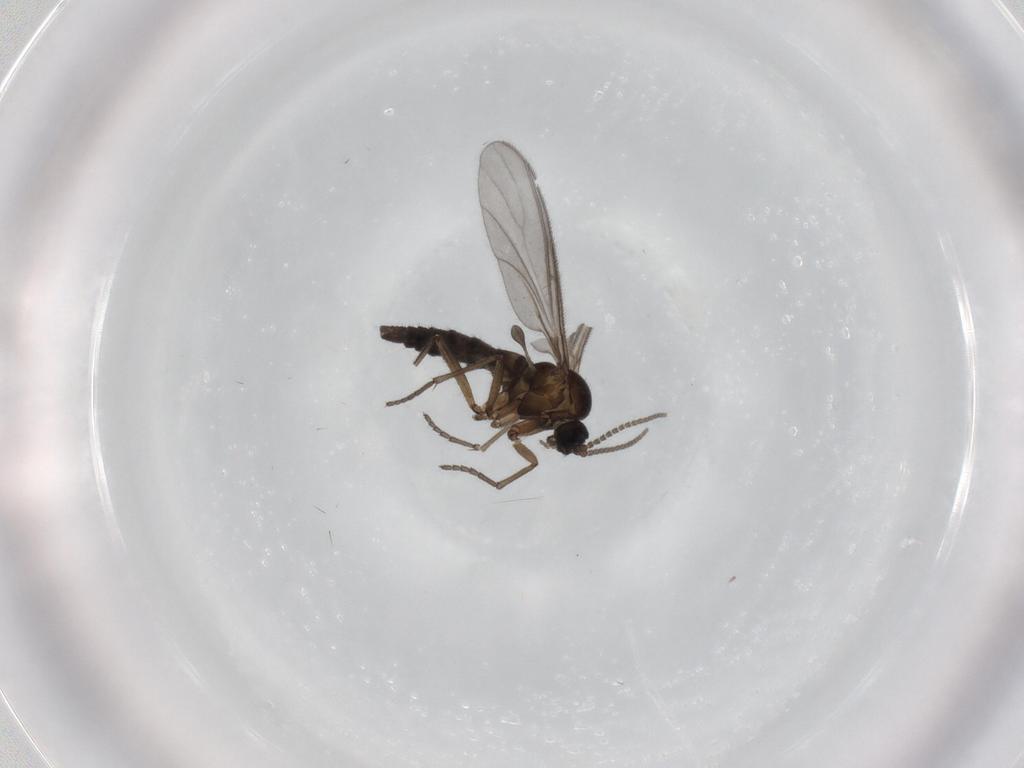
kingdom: Animalia
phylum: Arthropoda
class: Insecta
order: Diptera
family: Sciaridae
